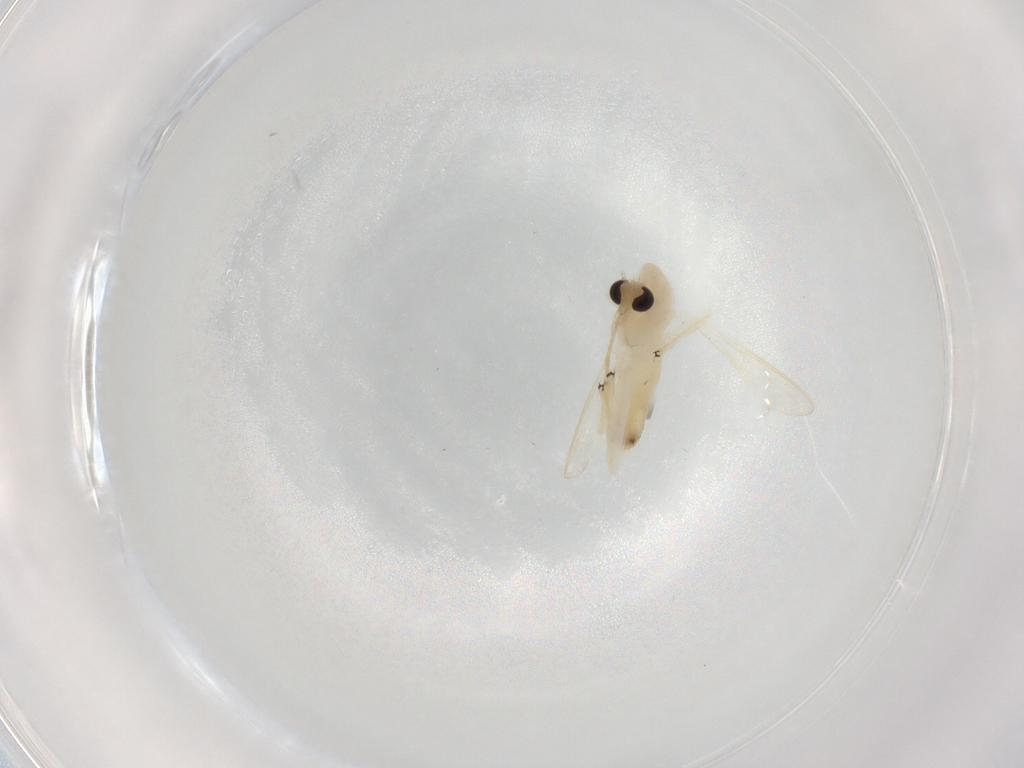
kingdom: Animalia
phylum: Arthropoda
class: Insecta
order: Diptera
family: Chironomidae
